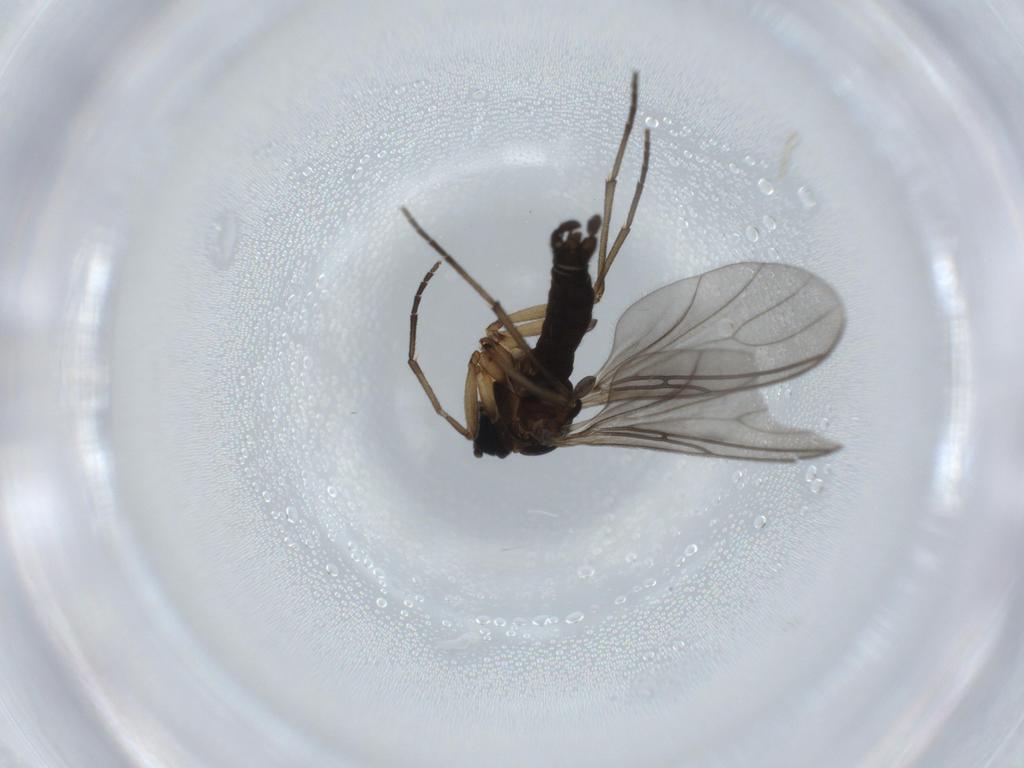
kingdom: Animalia
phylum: Arthropoda
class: Insecta
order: Diptera
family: Sciaridae
